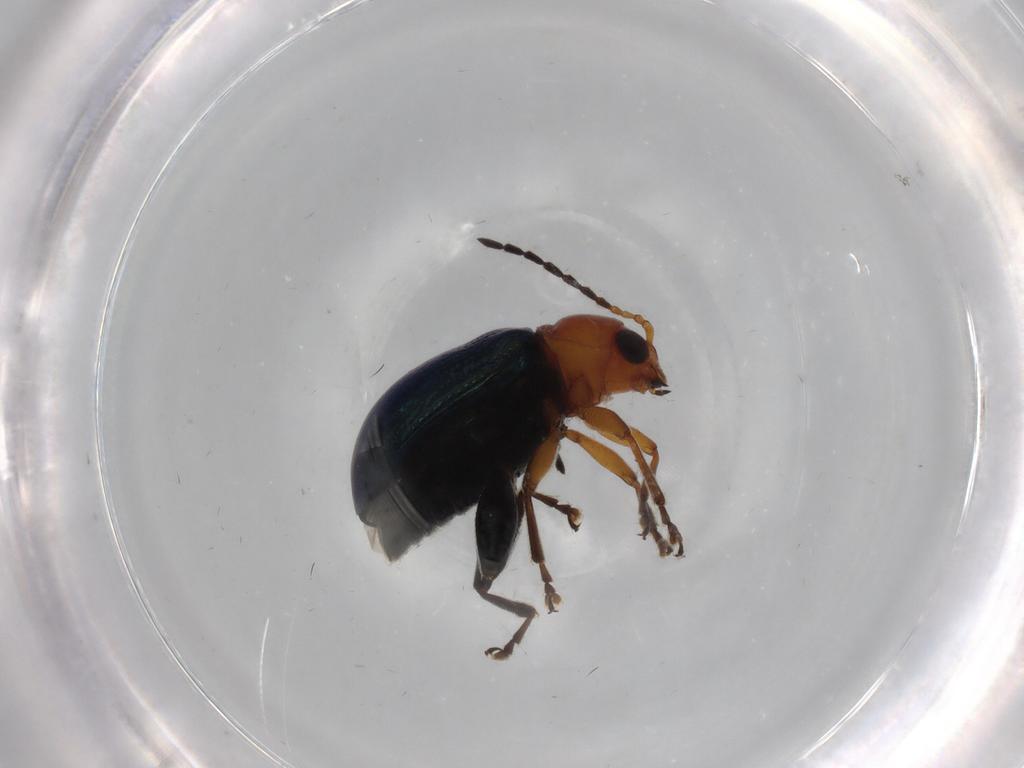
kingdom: Animalia
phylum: Arthropoda
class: Insecta
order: Coleoptera
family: Chrysomelidae
